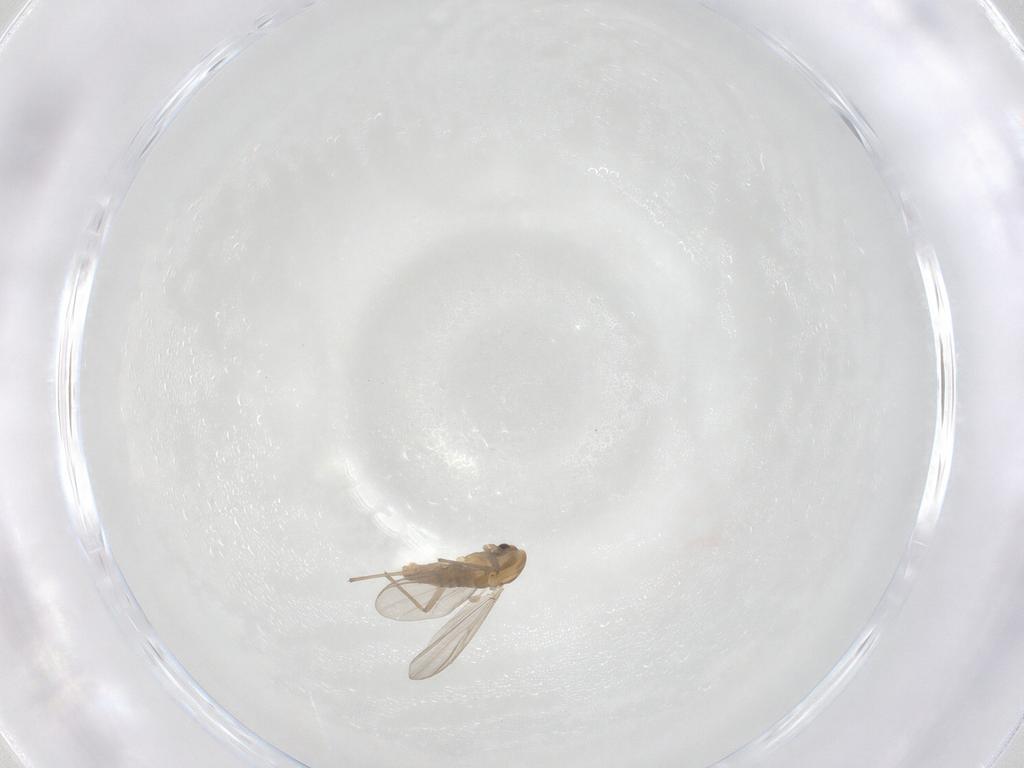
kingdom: Animalia
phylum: Arthropoda
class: Insecta
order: Diptera
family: Chironomidae
